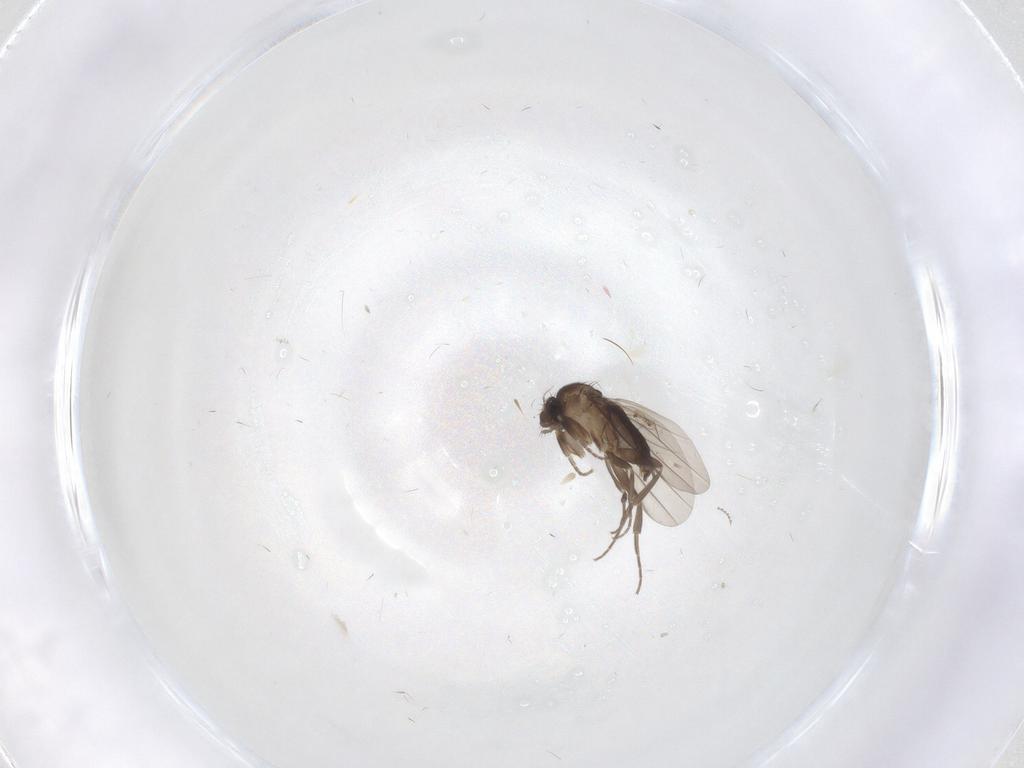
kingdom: Animalia
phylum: Arthropoda
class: Insecta
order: Diptera
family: Phoridae
